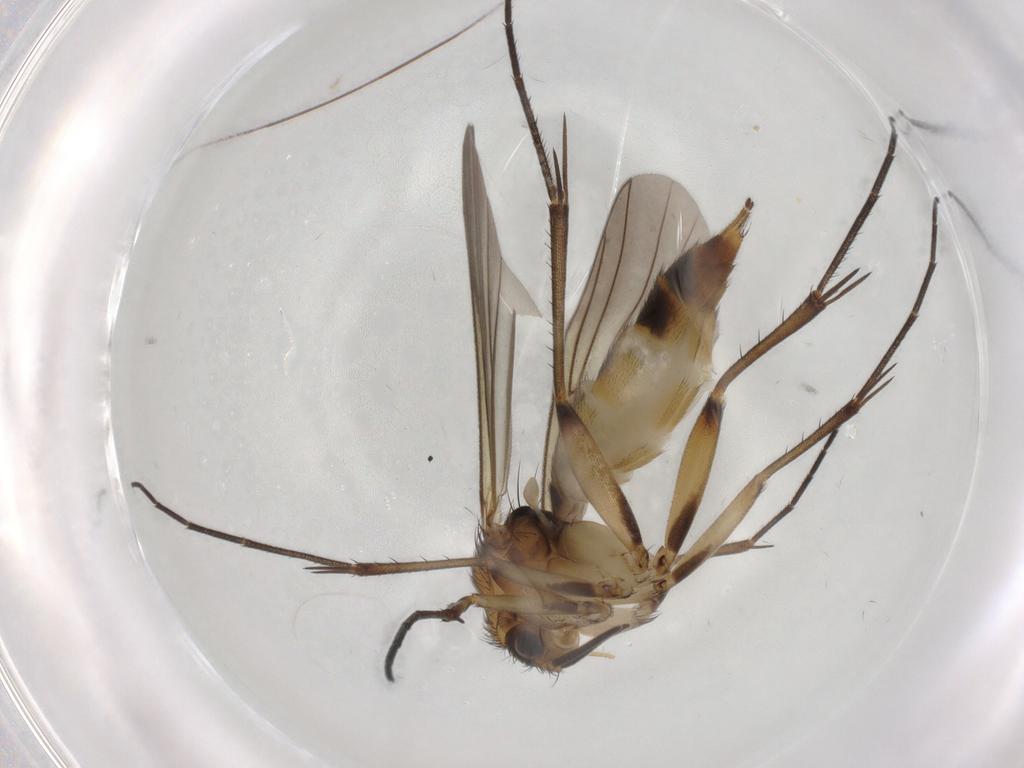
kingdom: Animalia
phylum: Arthropoda
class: Insecta
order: Diptera
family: Mycetophilidae
